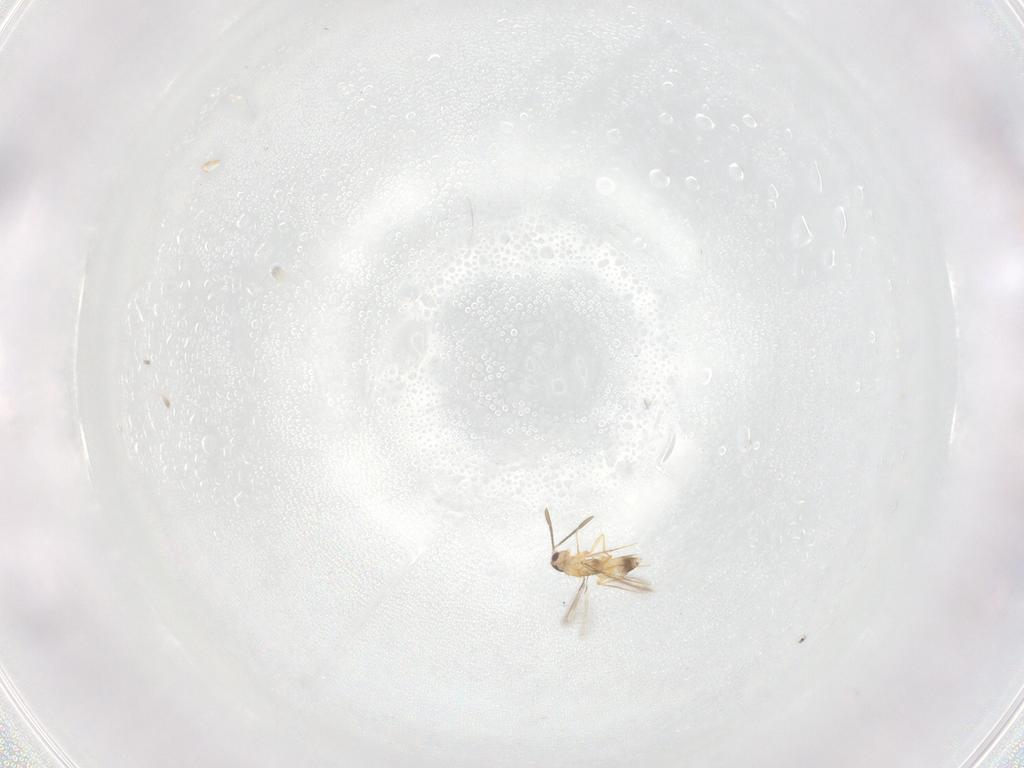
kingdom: Animalia
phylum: Arthropoda
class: Insecta
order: Hymenoptera
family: Mymaridae
